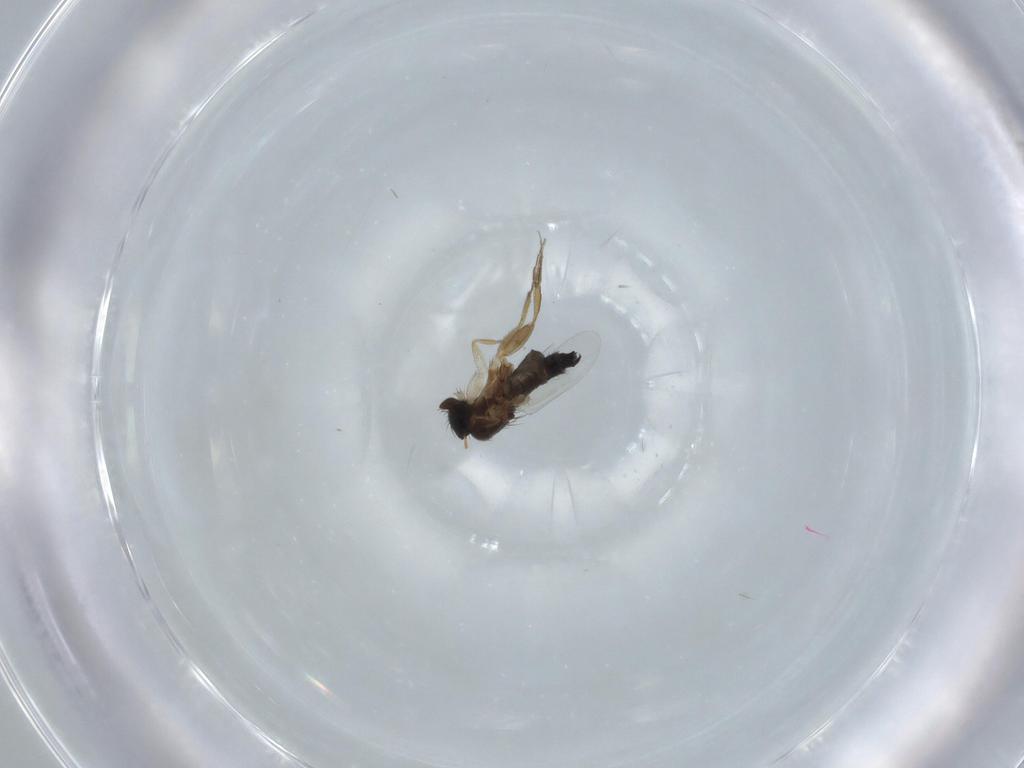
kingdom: Animalia
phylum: Arthropoda
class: Insecta
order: Diptera
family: Phoridae
